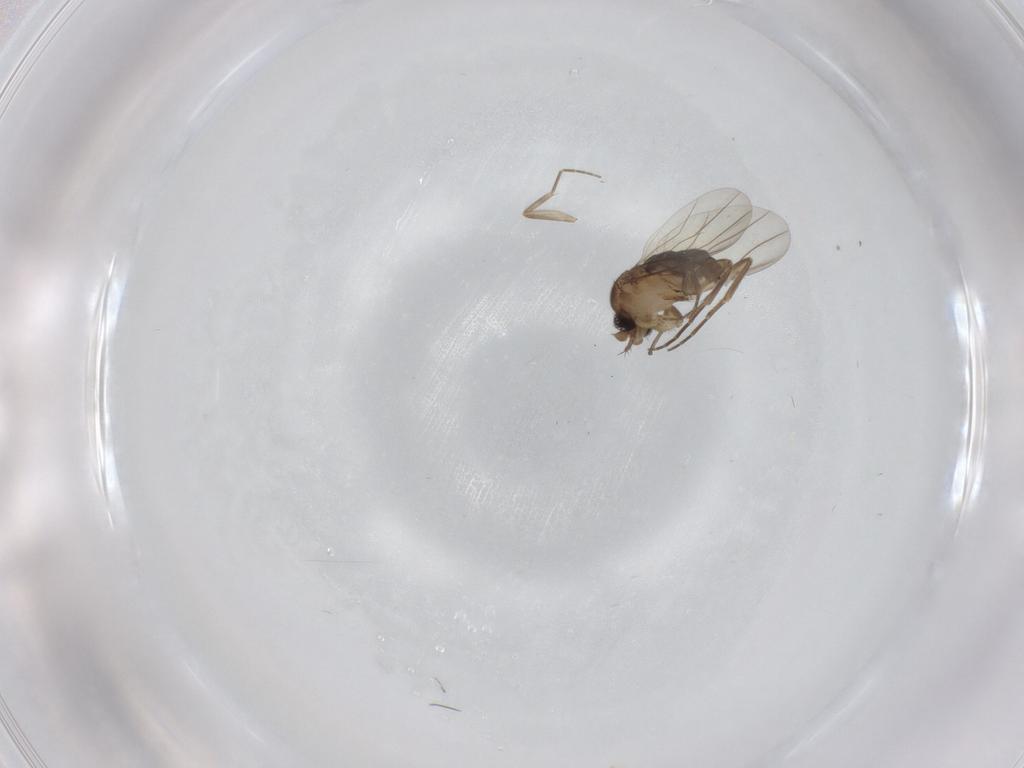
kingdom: Animalia
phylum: Arthropoda
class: Insecta
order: Diptera
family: Phoridae
